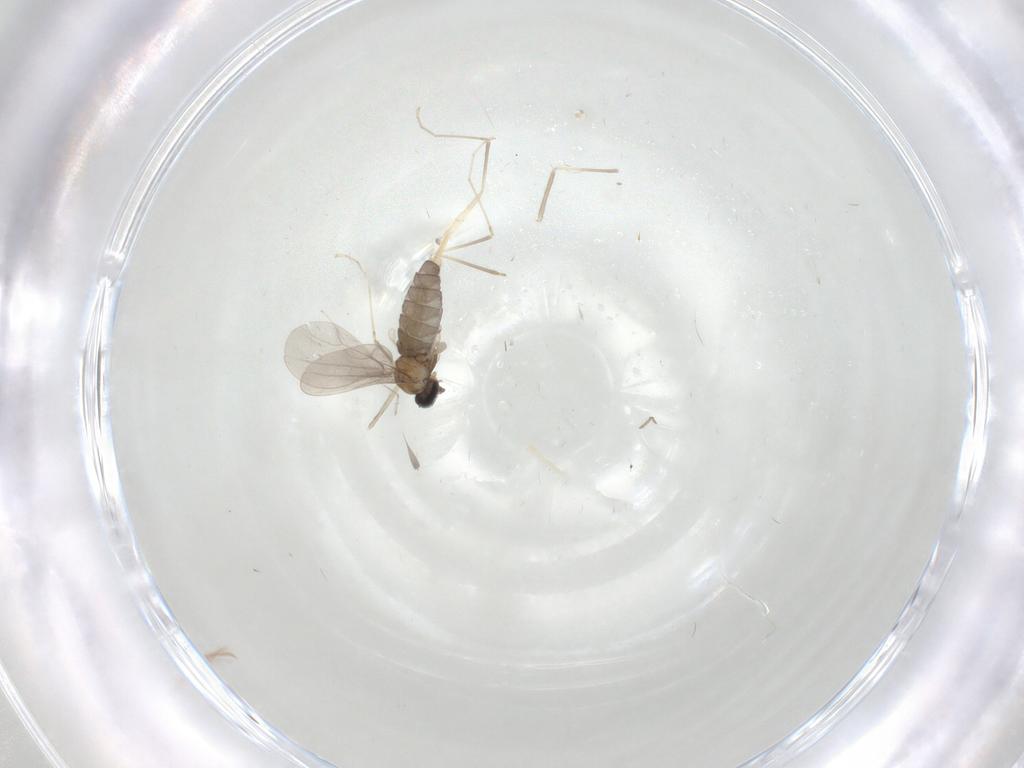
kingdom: Animalia
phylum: Arthropoda
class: Insecta
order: Diptera
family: Cecidomyiidae
